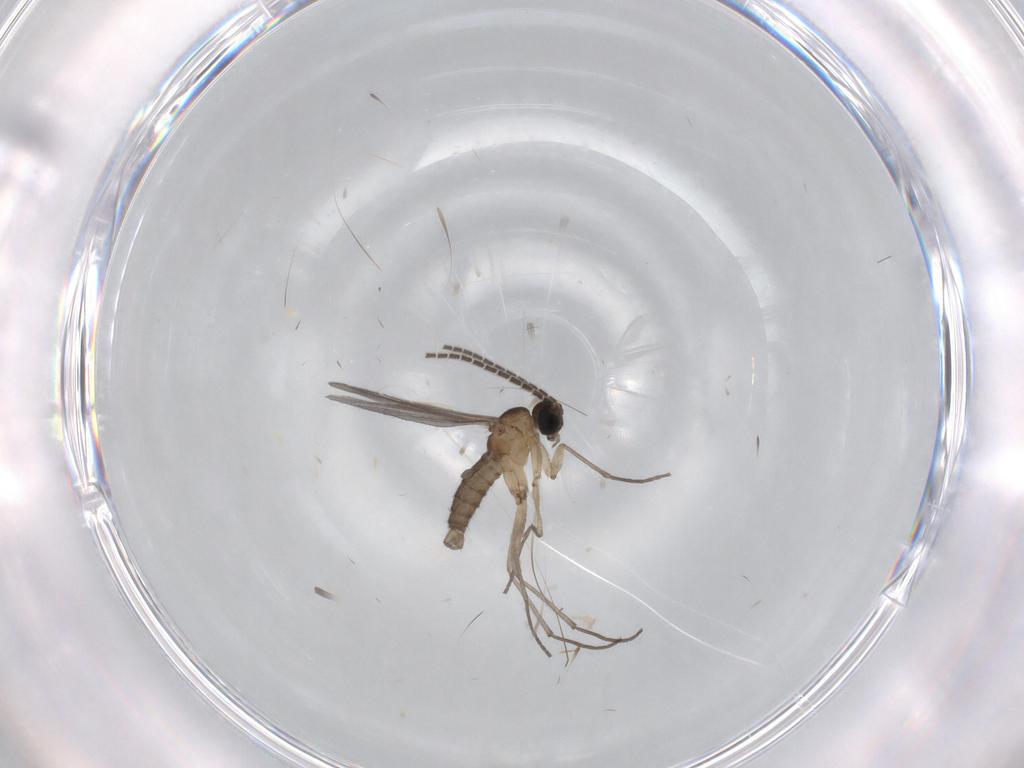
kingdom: Animalia
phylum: Arthropoda
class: Insecta
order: Diptera
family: Sciaridae
